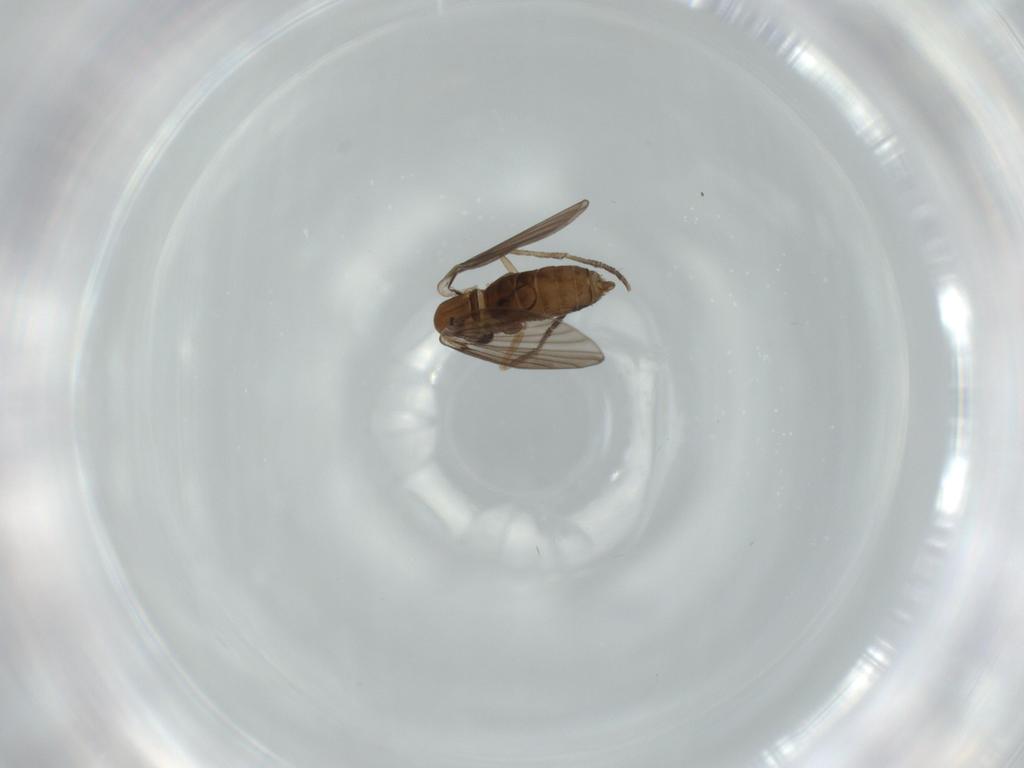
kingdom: Animalia
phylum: Arthropoda
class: Insecta
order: Diptera
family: Psychodidae
